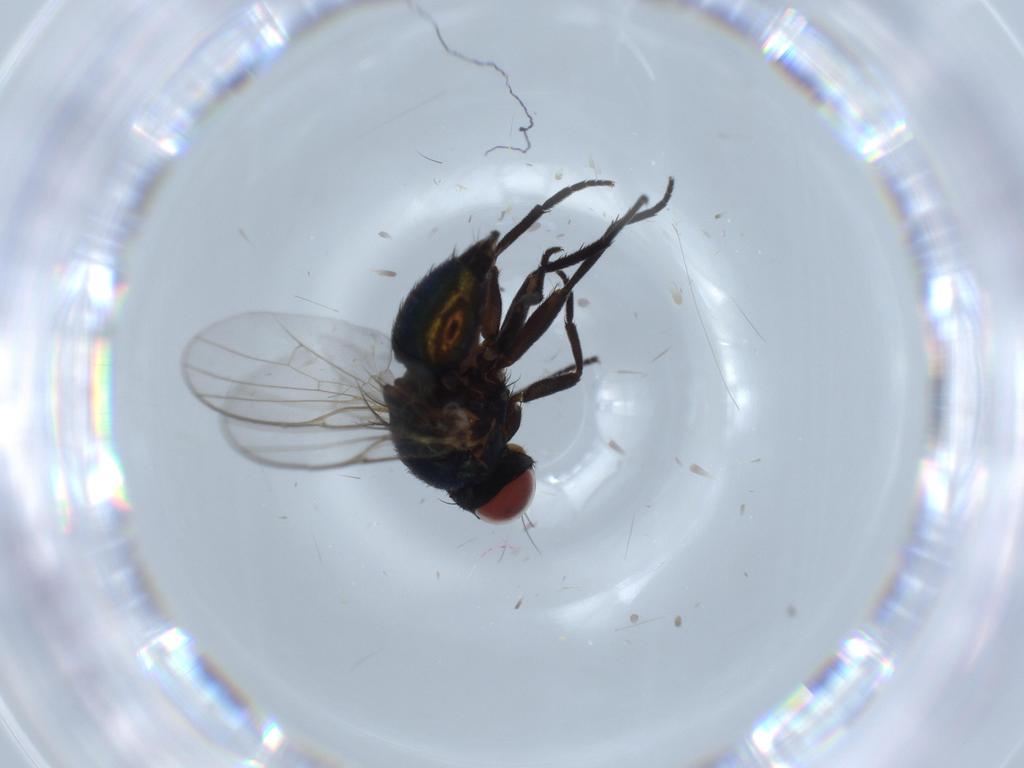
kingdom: Animalia
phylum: Arthropoda
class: Insecta
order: Diptera
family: Agromyzidae
